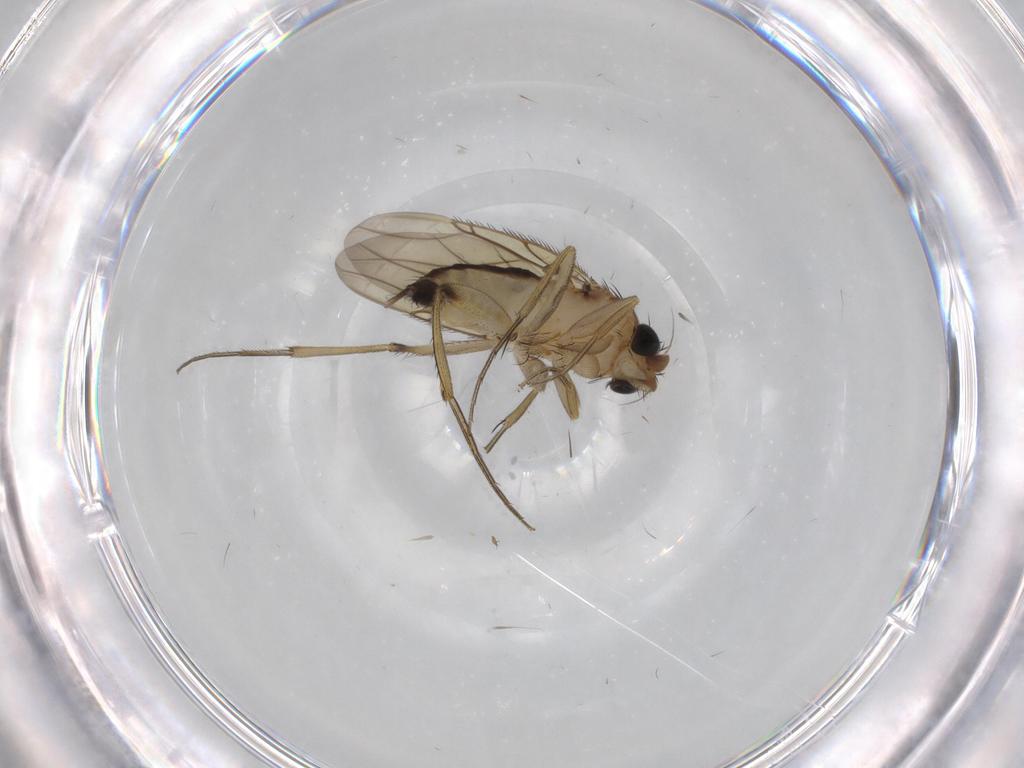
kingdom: Animalia
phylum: Arthropoda
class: Insecta
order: Diptera
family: Phoridae
